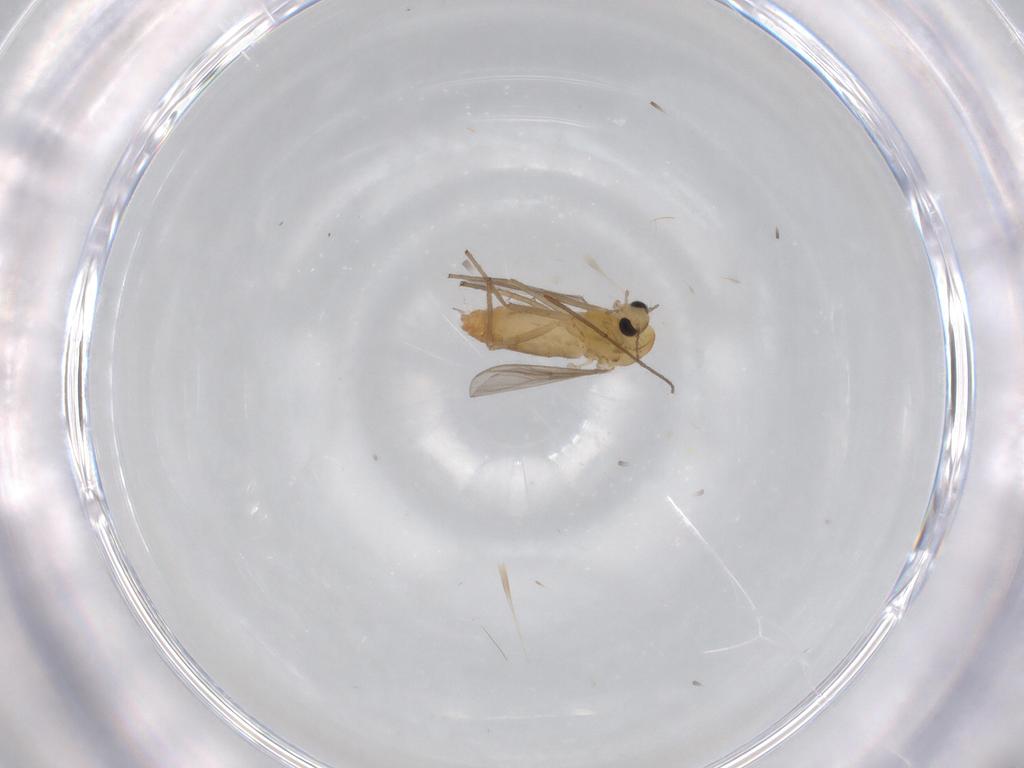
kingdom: Animalia
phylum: Arthropoda
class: Insecta
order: Diptera
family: Chironomidae
